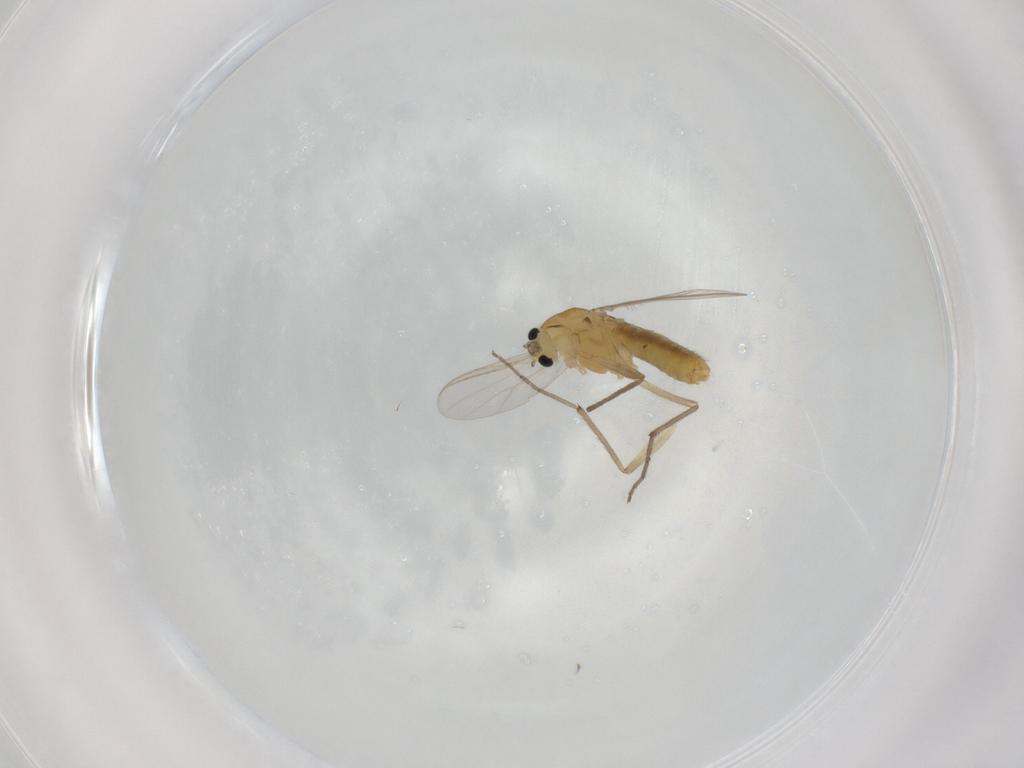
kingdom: Animalia
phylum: Arthropoda
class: Insecta
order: Diptera
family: Chironomidae
